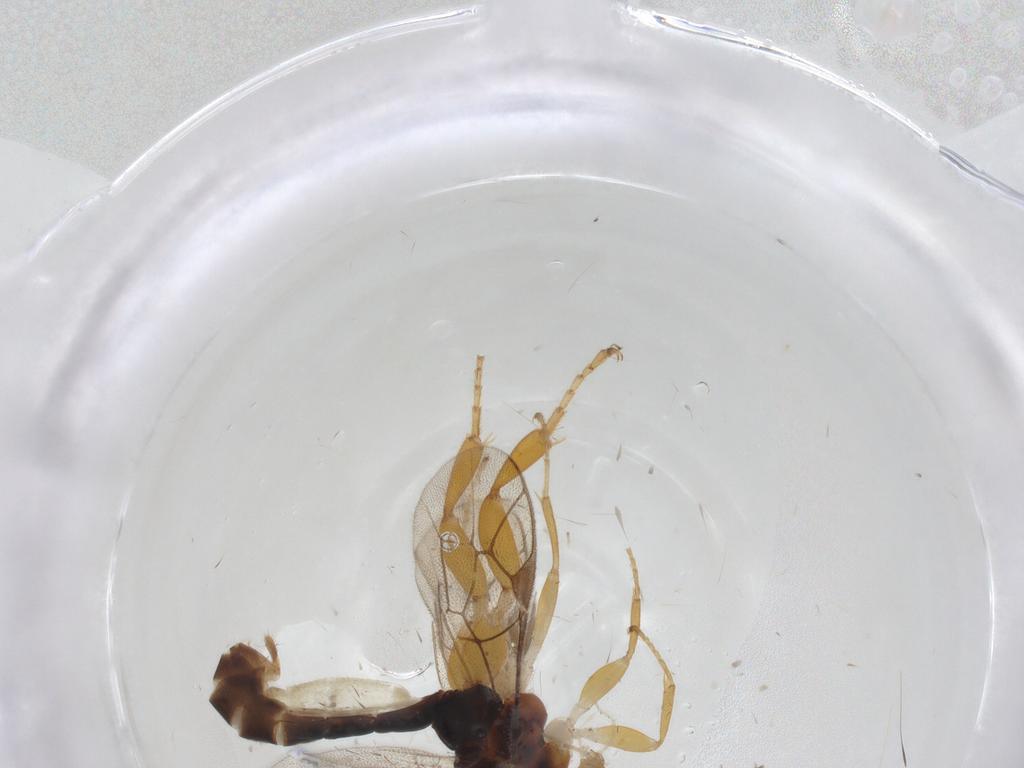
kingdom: Animalia
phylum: Arthropoda
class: Insecta
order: Hymenoptera
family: Ichneumonidae
